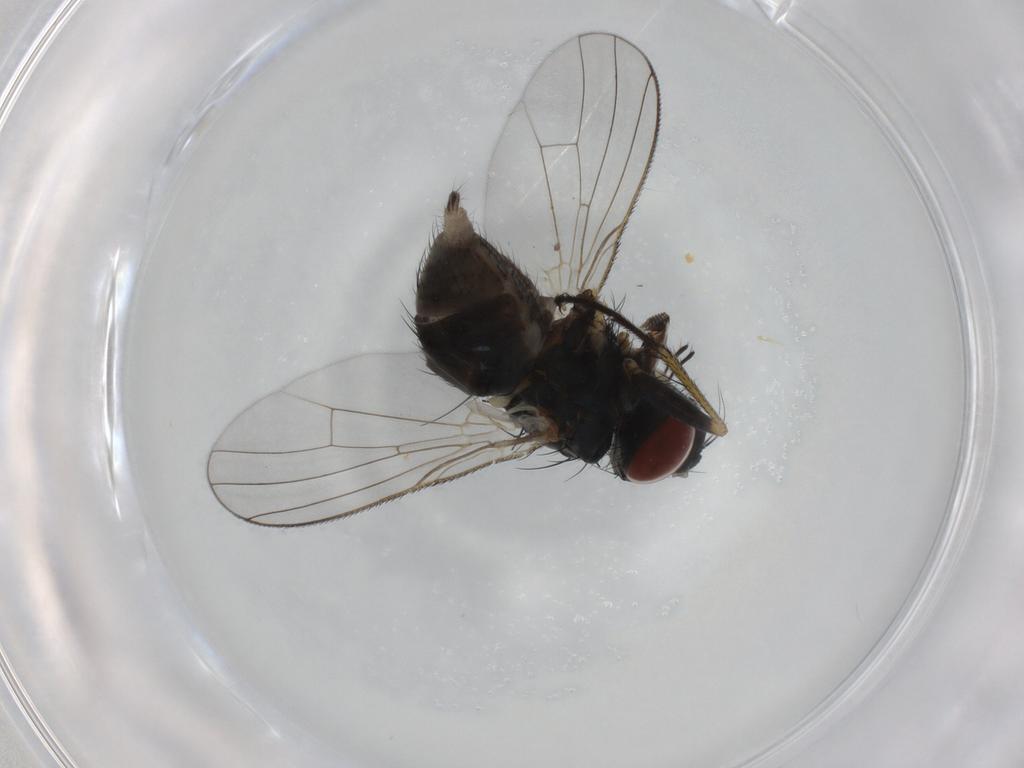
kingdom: Animalia
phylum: Arthropoda
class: Insecta
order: Diptera
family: Muscidae
